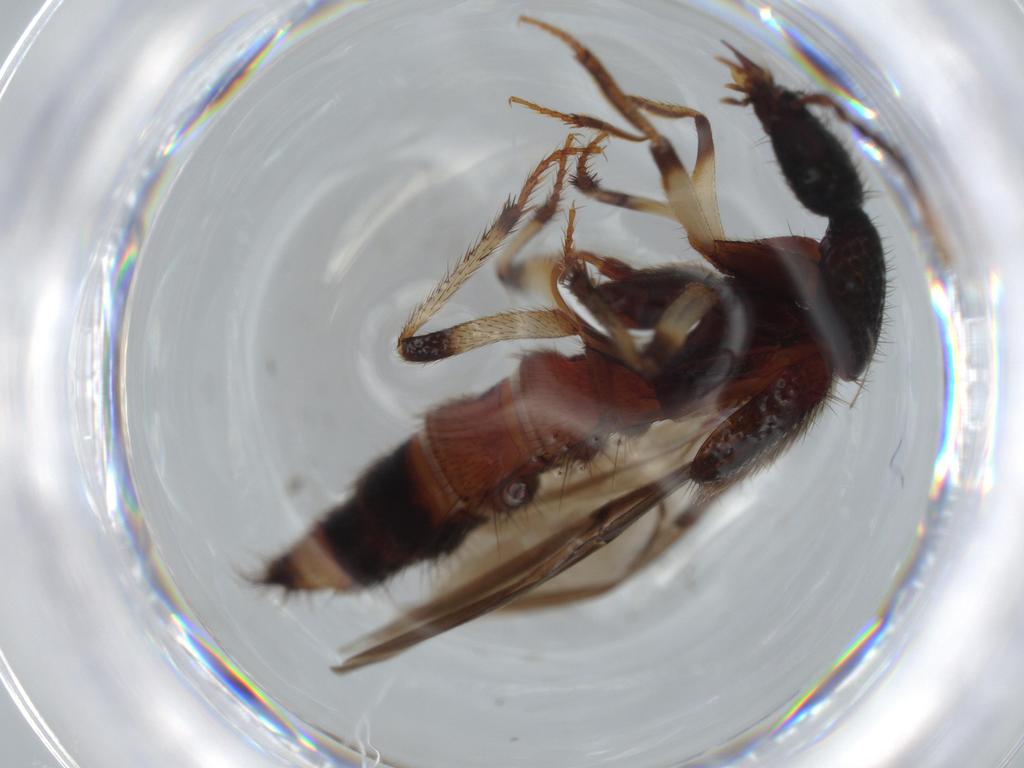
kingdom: Animalia
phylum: Arthropoda
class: Insecta
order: Coleoptera
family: Staphylinidae
